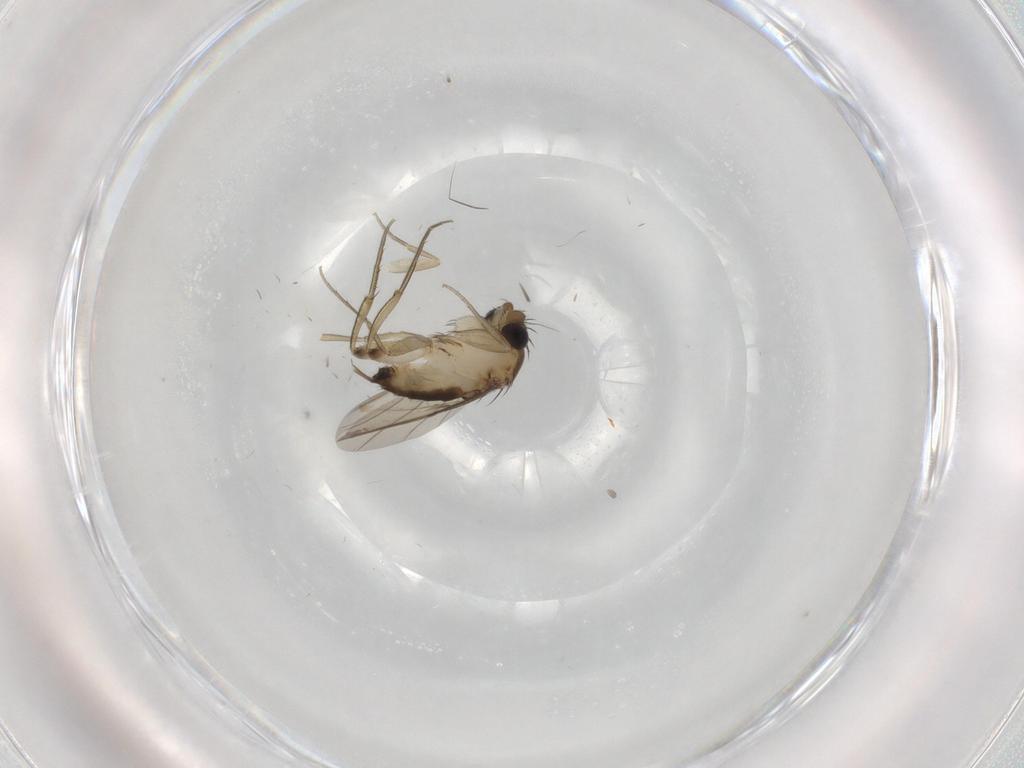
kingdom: Animalia
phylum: Arthropoda
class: Insecta
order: Diptera
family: Phoridae
